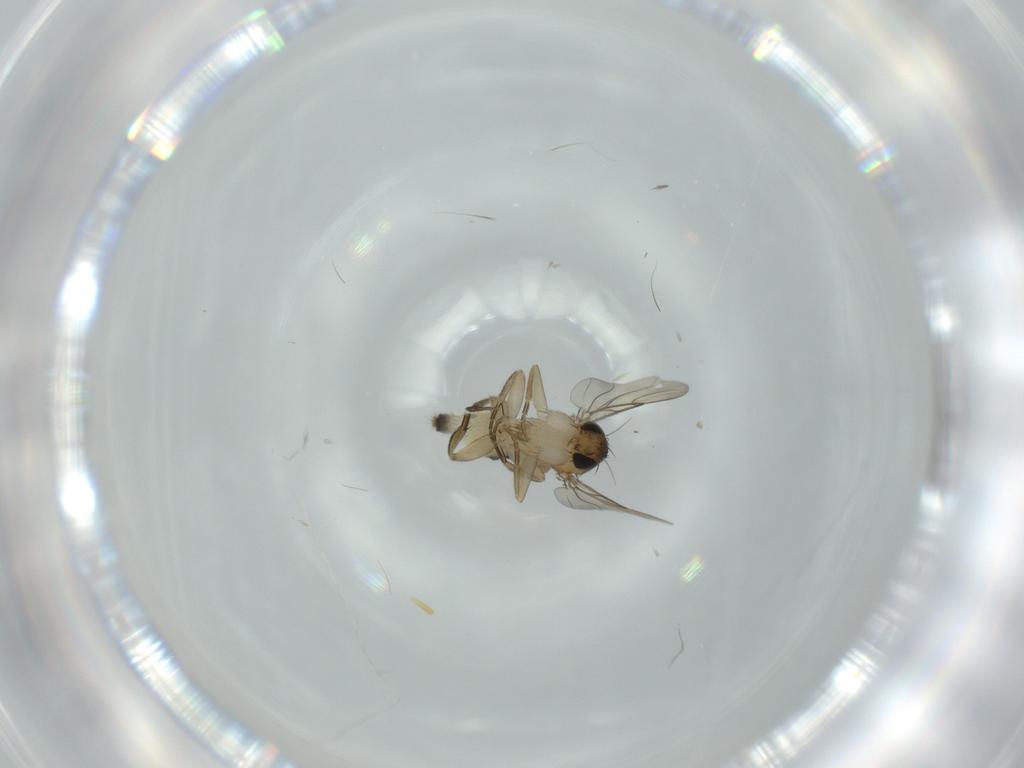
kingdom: Animalia
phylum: Arthropoda
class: Insecta
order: Diptera
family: Phoridae
